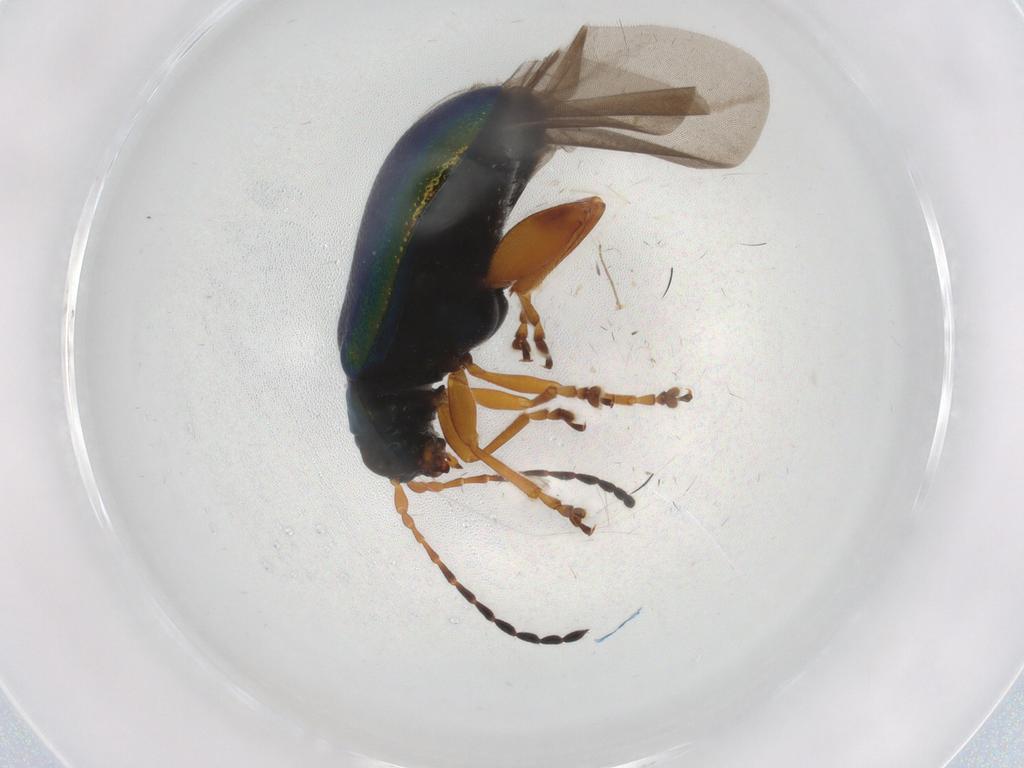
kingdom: Animalia
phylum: Arthropoda
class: Insecta
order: Coleoptera
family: Chrysomelidae
